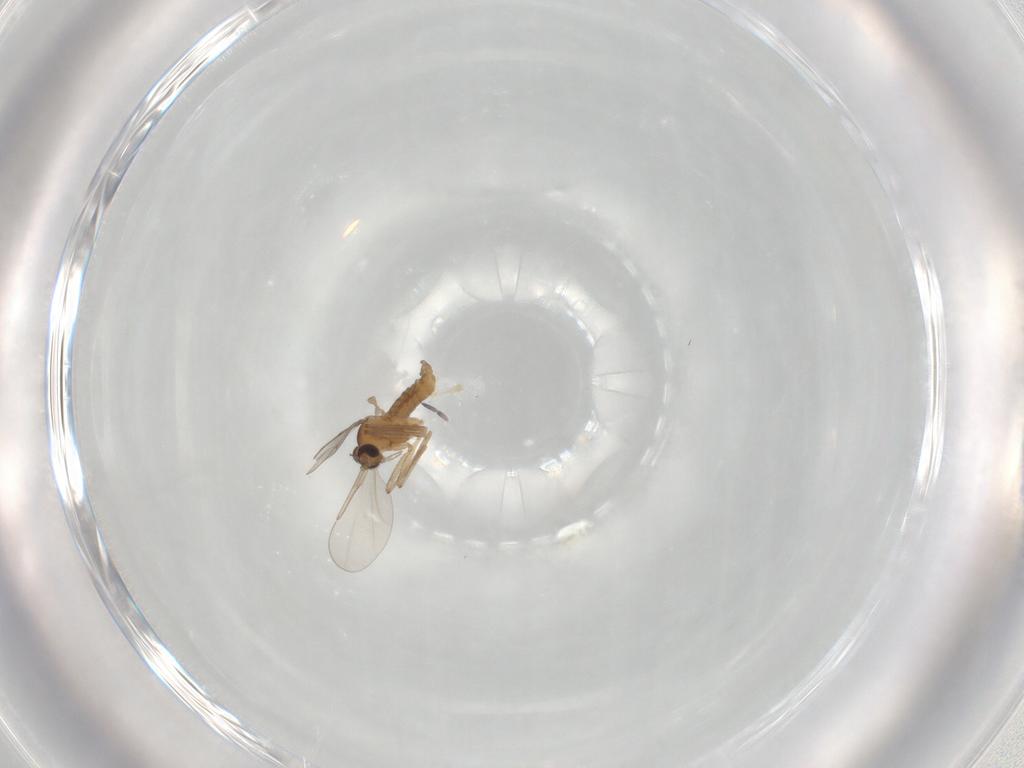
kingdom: Animalia
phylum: Arthropoda
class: Insecta
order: Diptera
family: Cecidomyiidae
